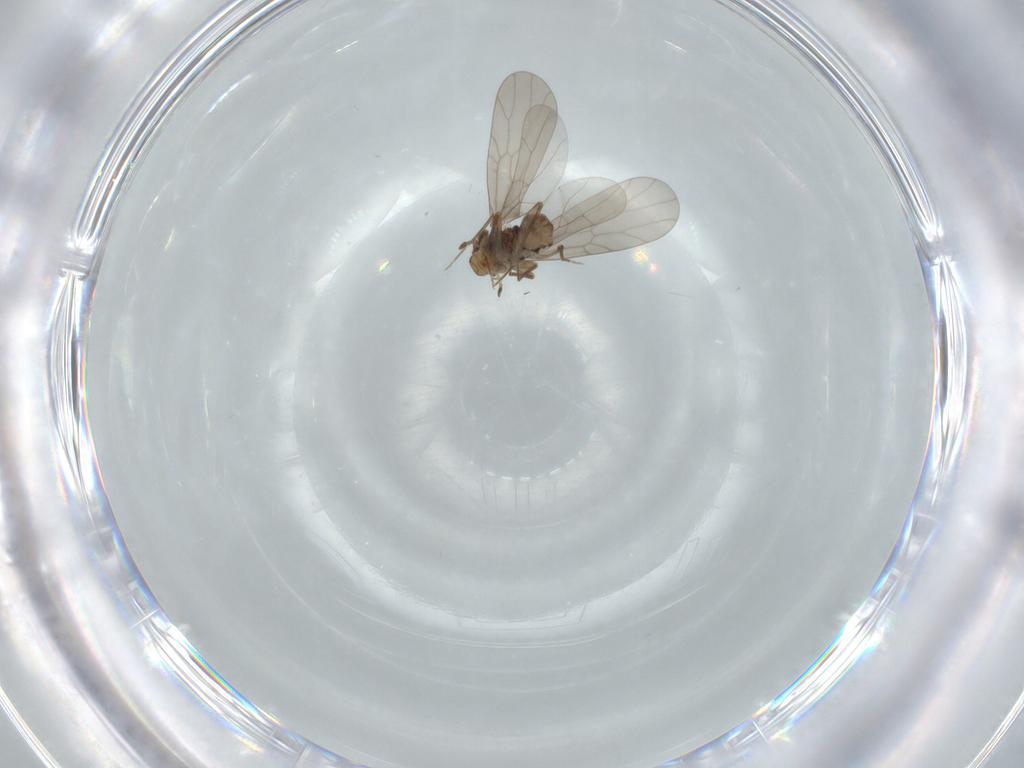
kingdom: Animalia
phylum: Arthropoda
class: Insecta
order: Psocodea
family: Lepidopsocidae
